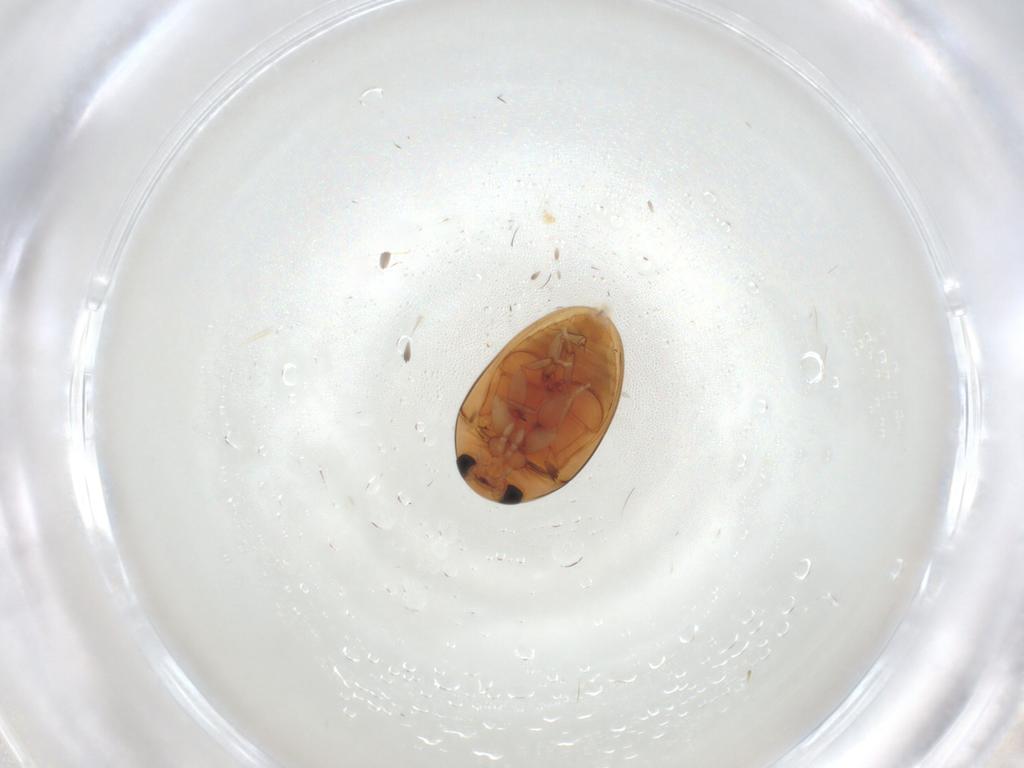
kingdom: Animalia
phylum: Arthropoda
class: Insecta
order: Coleoptera
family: Phalacridae
